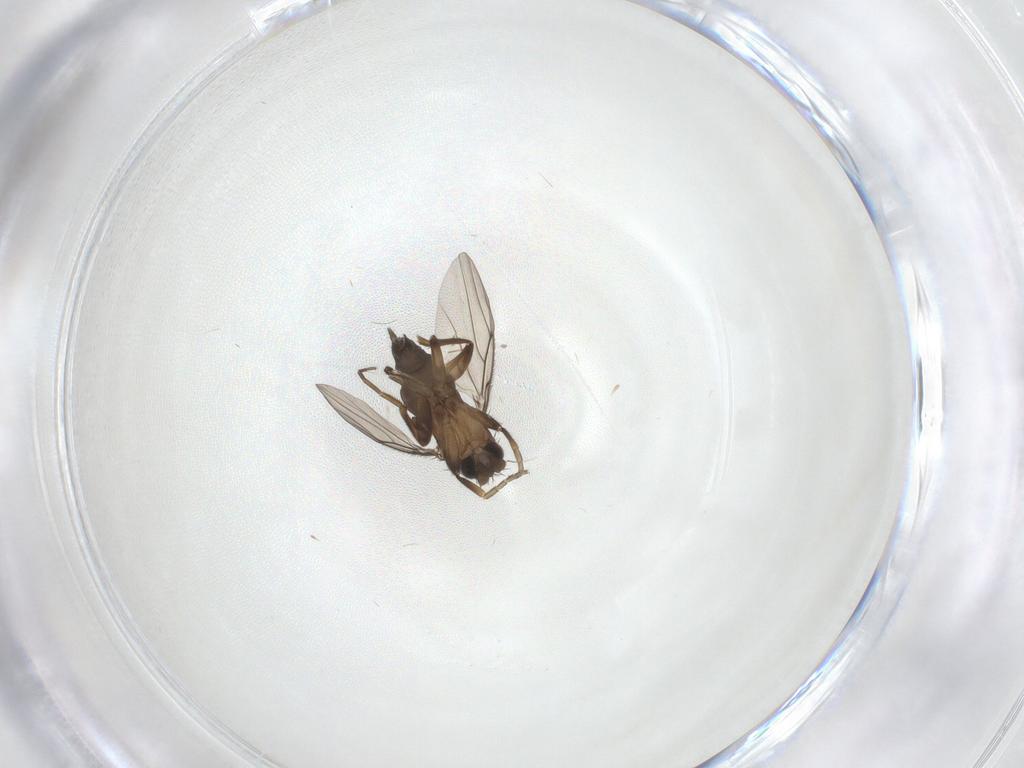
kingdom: Animalia
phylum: Arthropoda
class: Insecta
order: Diptera
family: Phoridae
